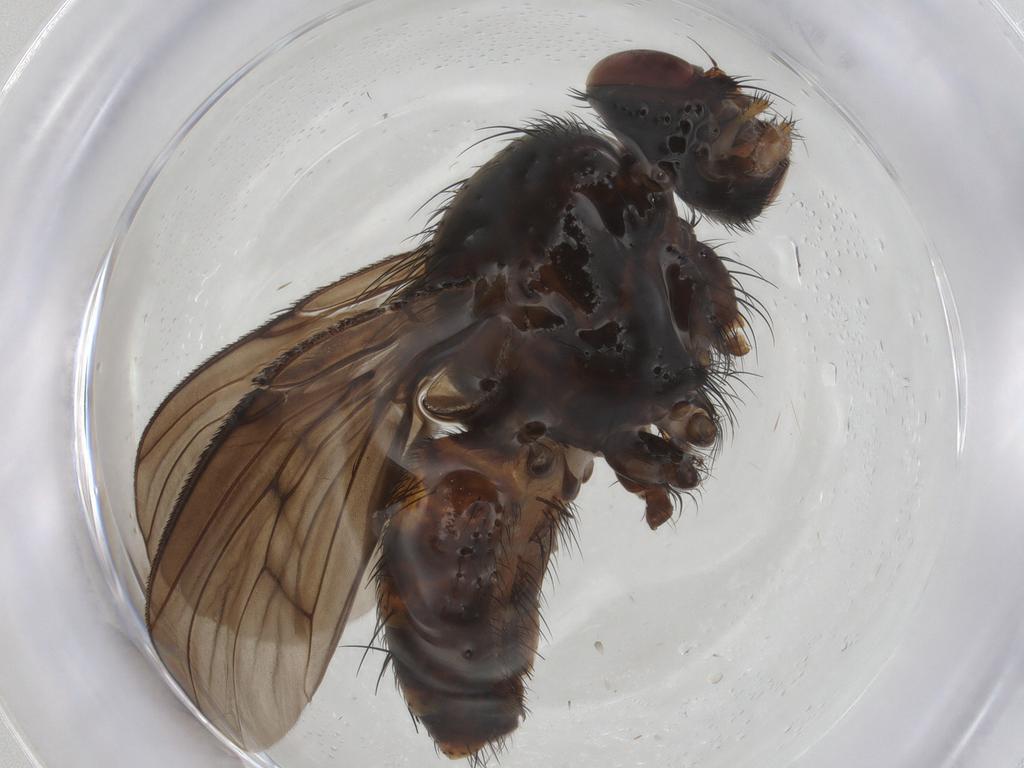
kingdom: Animalia
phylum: Arthropoda
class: Insecta
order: Diptera
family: Muscidae
